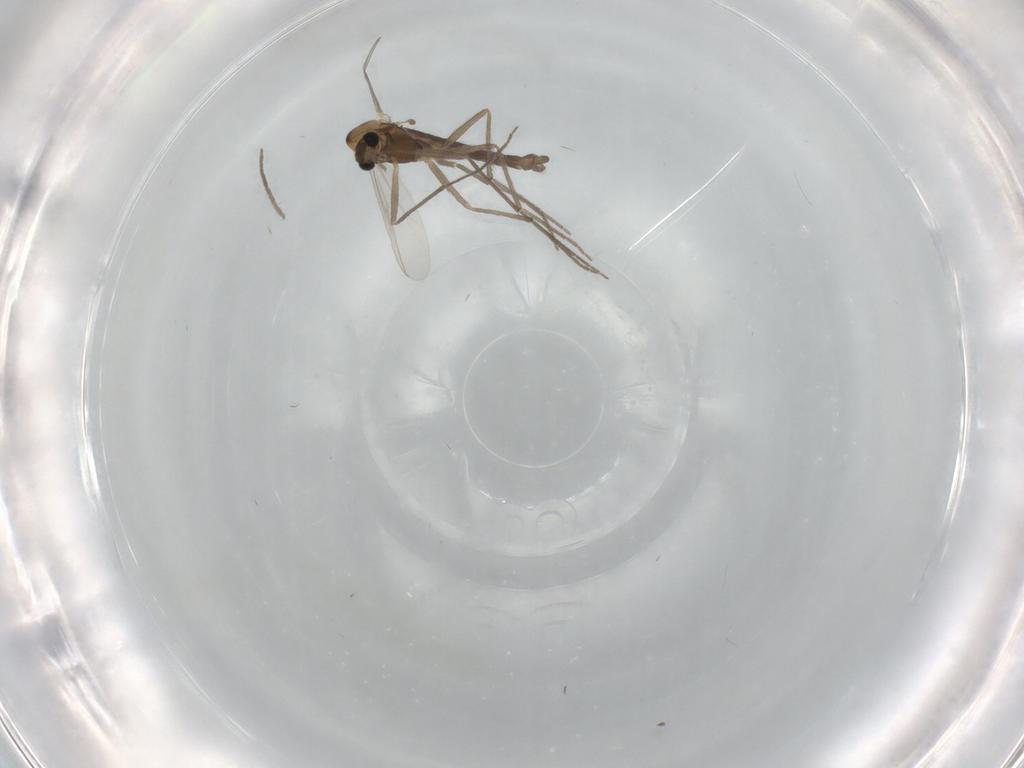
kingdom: Animalia
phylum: Arthropoda
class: Insecta
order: Diptera
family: Chironomidae
